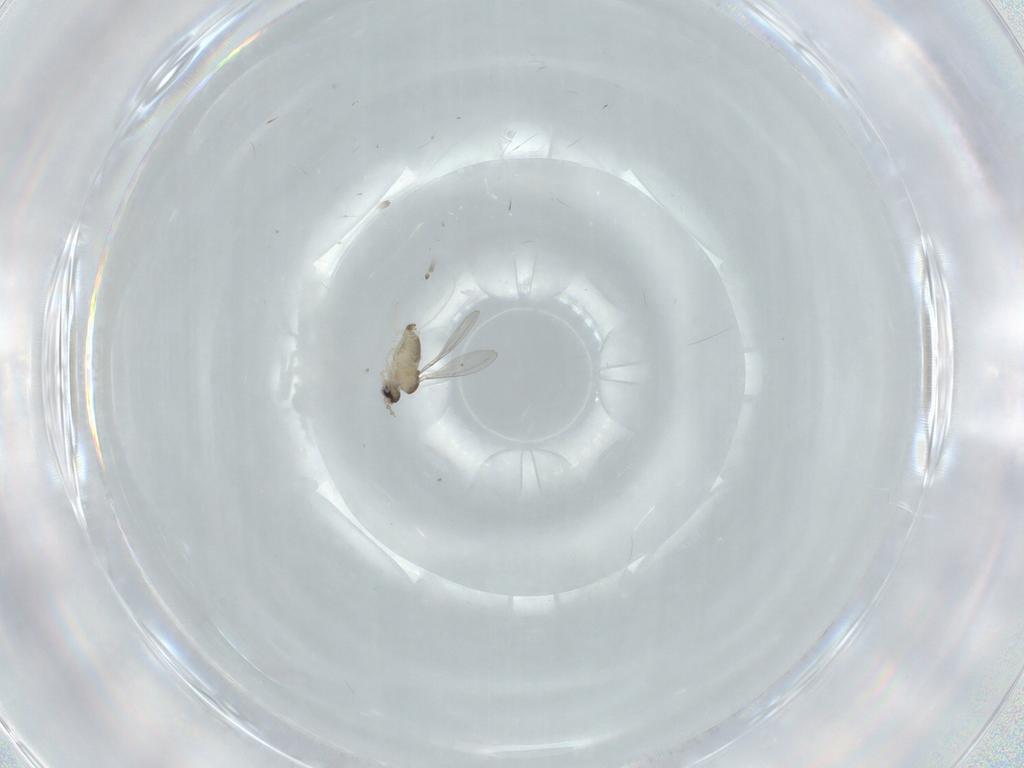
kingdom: Animalia
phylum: Arthropoda
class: Insecta
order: Diptera
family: Cecidomyiidae
